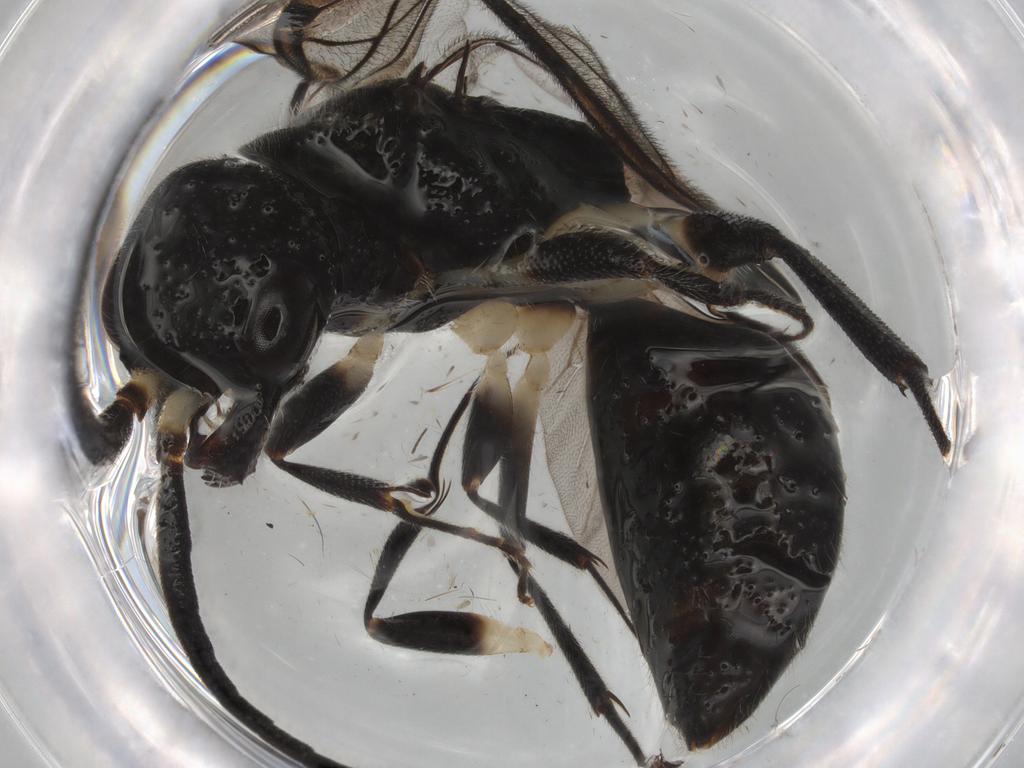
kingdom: Animalia
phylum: Arthropoda
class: Insecta
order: Hymenoptera
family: Bethylidae
